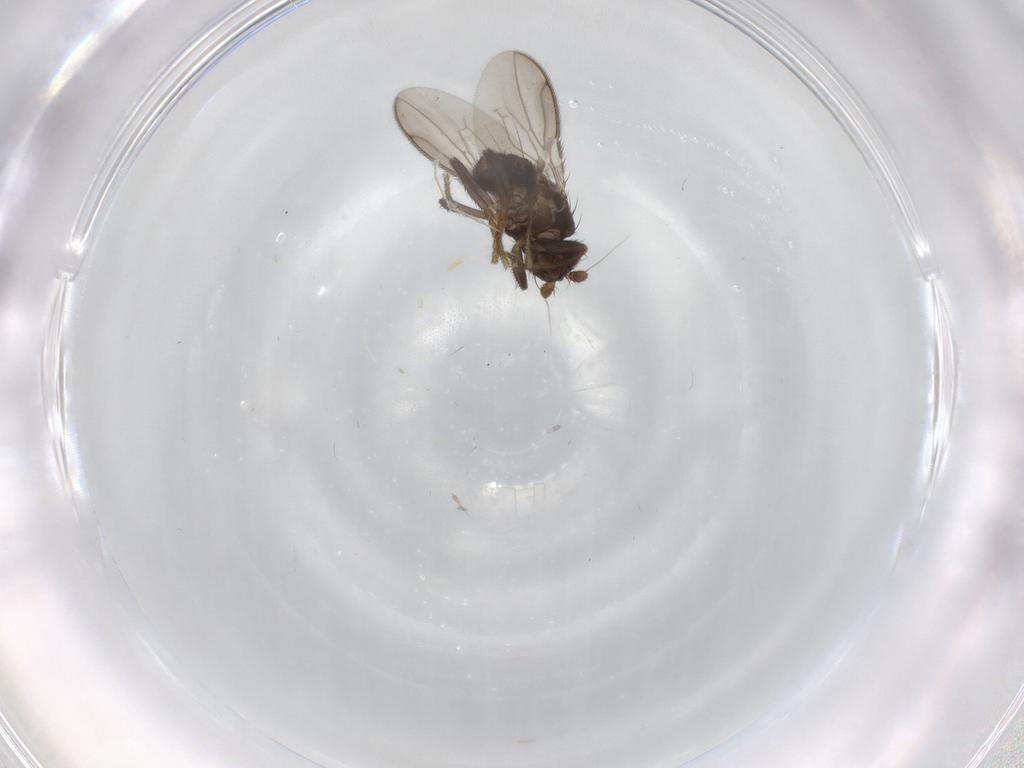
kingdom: Animalia
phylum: Arthropoda
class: Insecta
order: Diptera
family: Sphaeroceridae
